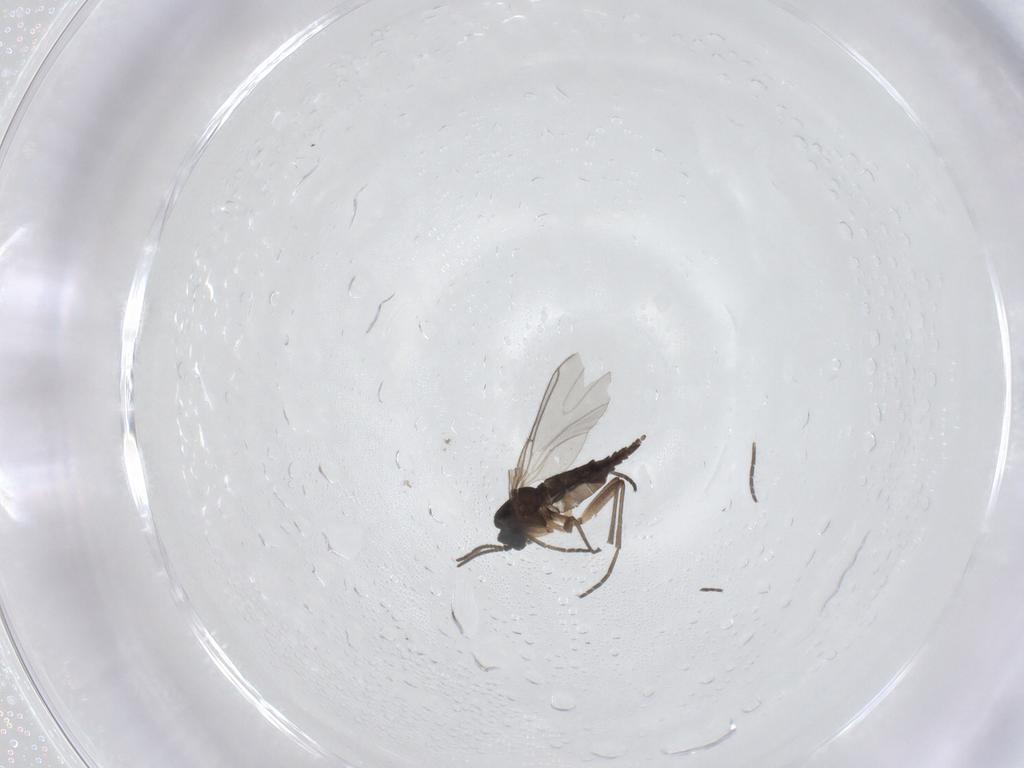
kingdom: Animalia
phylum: Arthropoda
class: Insecta
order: Diptera
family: Sciaridae
